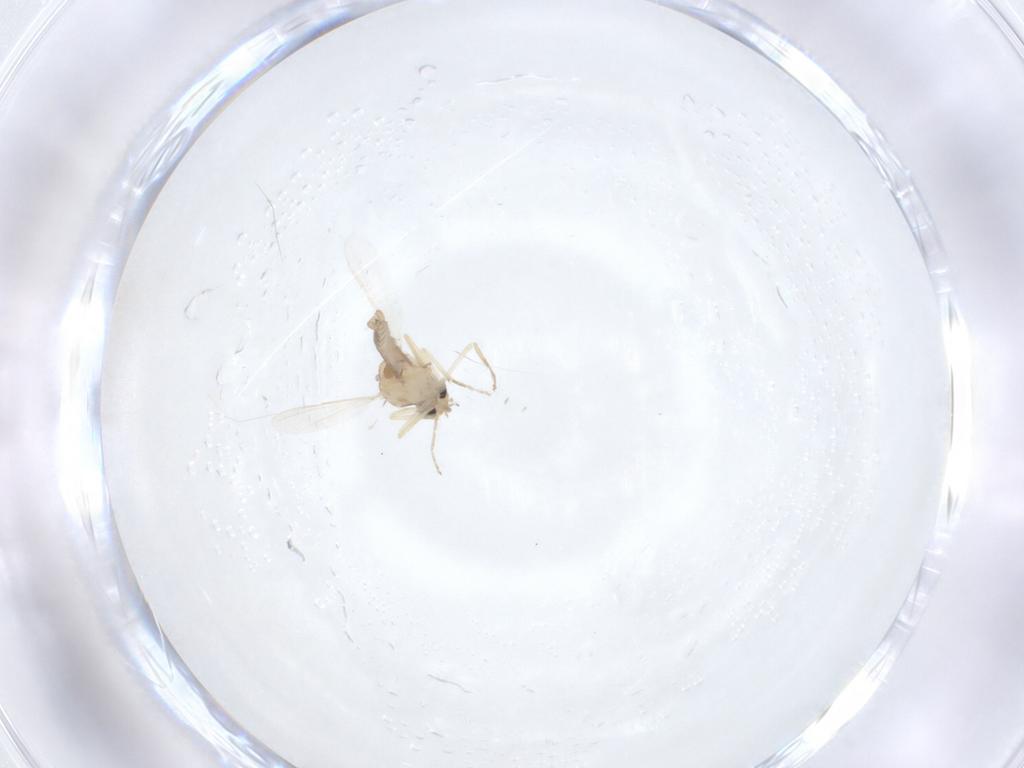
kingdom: Animalia
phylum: Arthropoda
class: Insecta
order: Diptera
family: Ceratopogonidae
